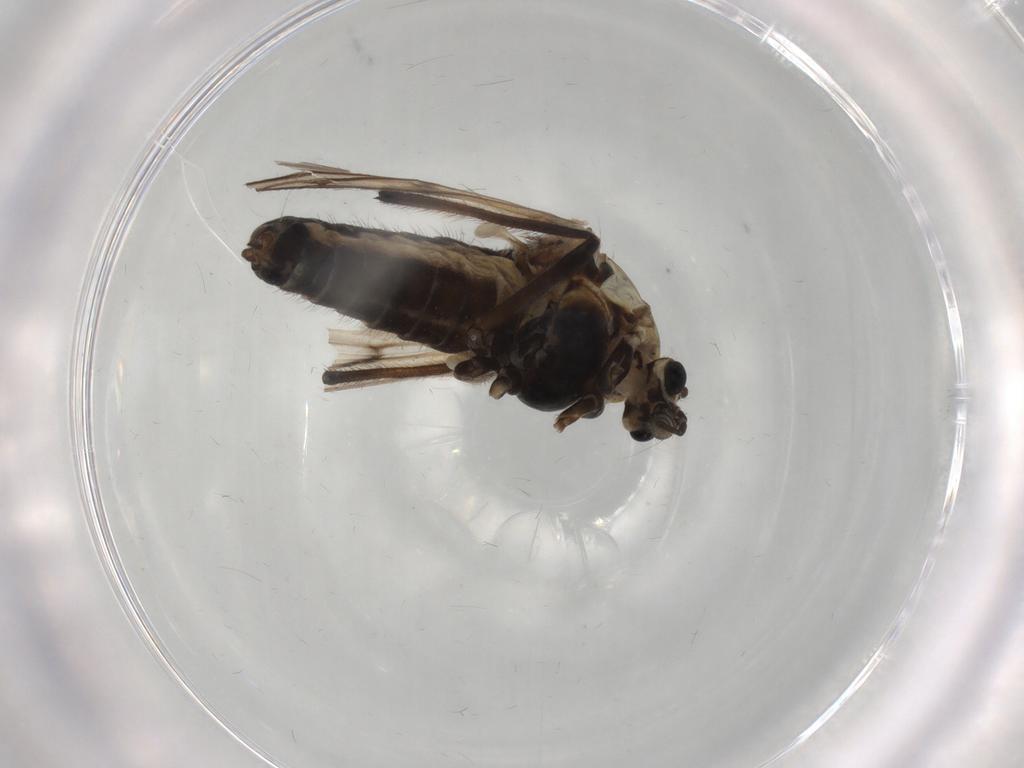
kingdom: Animalia
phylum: Arthropoda
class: Insecta
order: Diptera
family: Chironomidae
